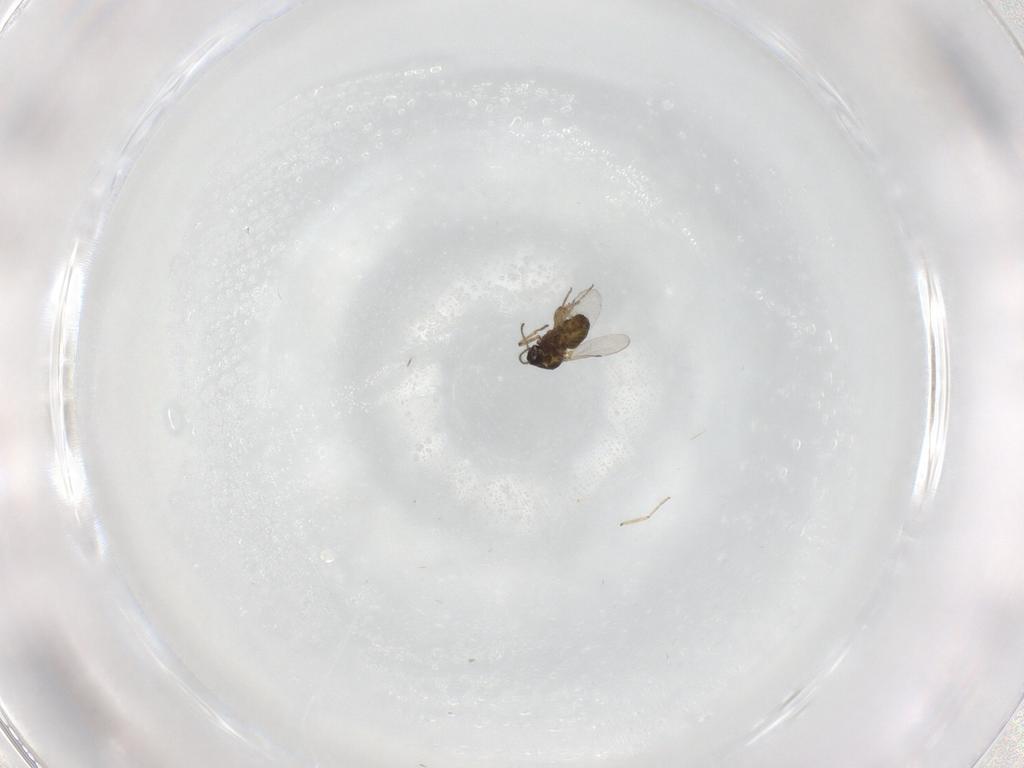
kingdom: Animalia
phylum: Arthropoda
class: Insecta
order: Diptera
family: Ceratopogonidae
